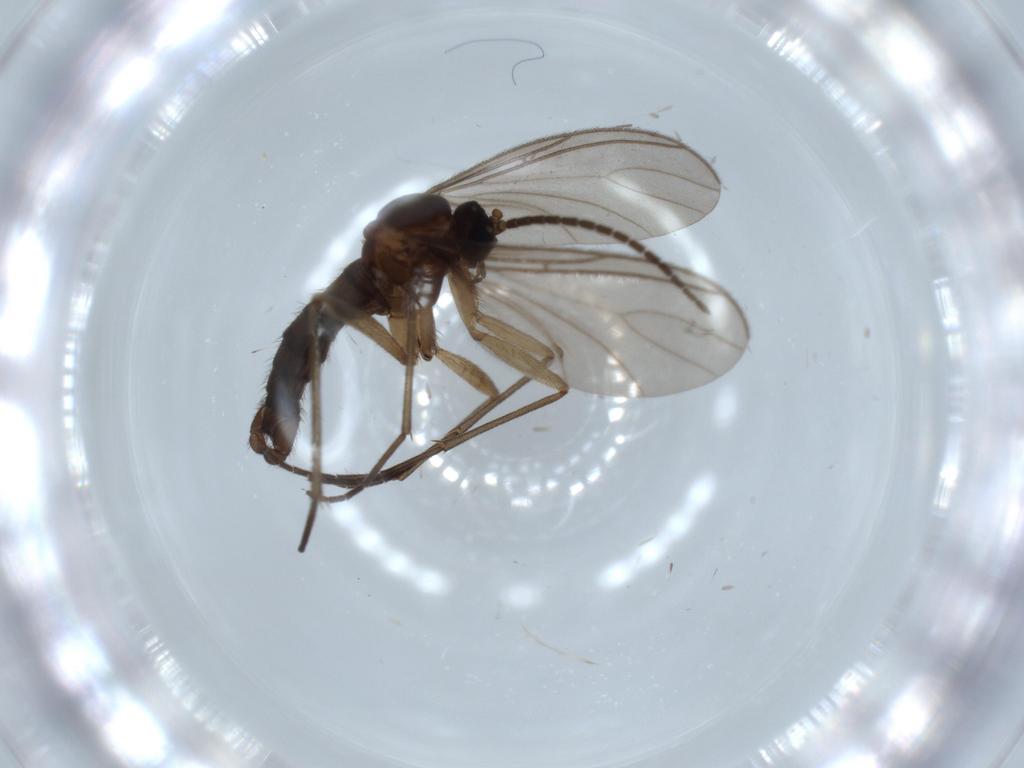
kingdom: Animalia
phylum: Arthropoda
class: Insecta
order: Diptera
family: Sciaridae
